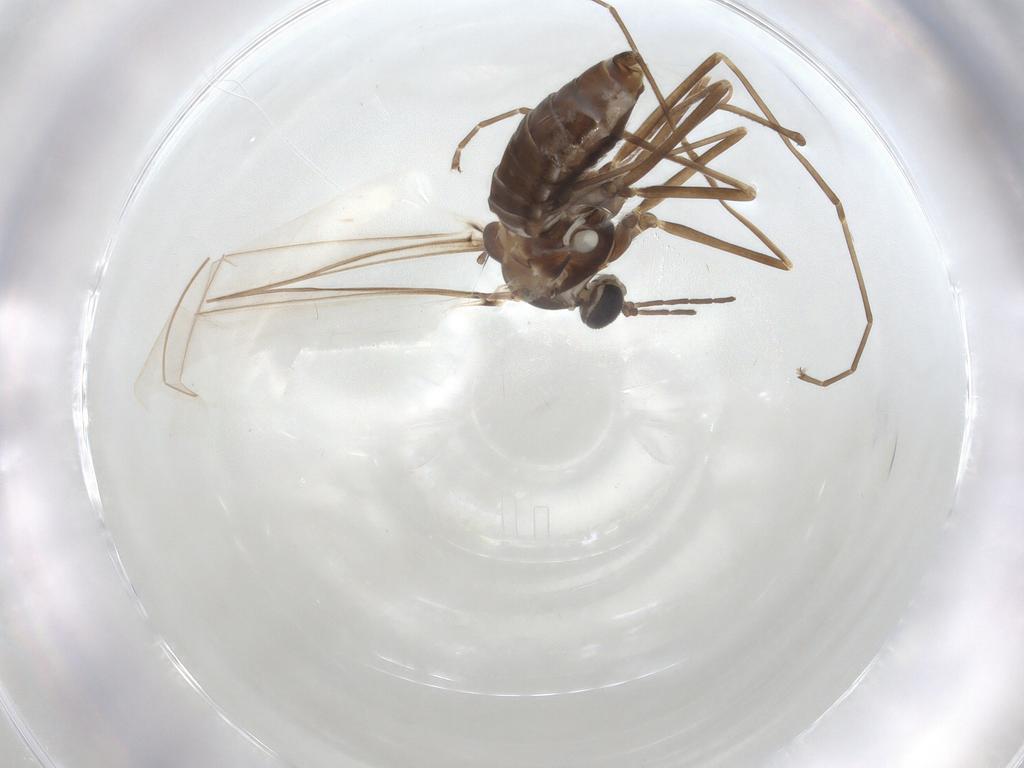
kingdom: Animalia
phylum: Arthropoda
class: Insecta
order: Diptera
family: Cecidomyiidae
